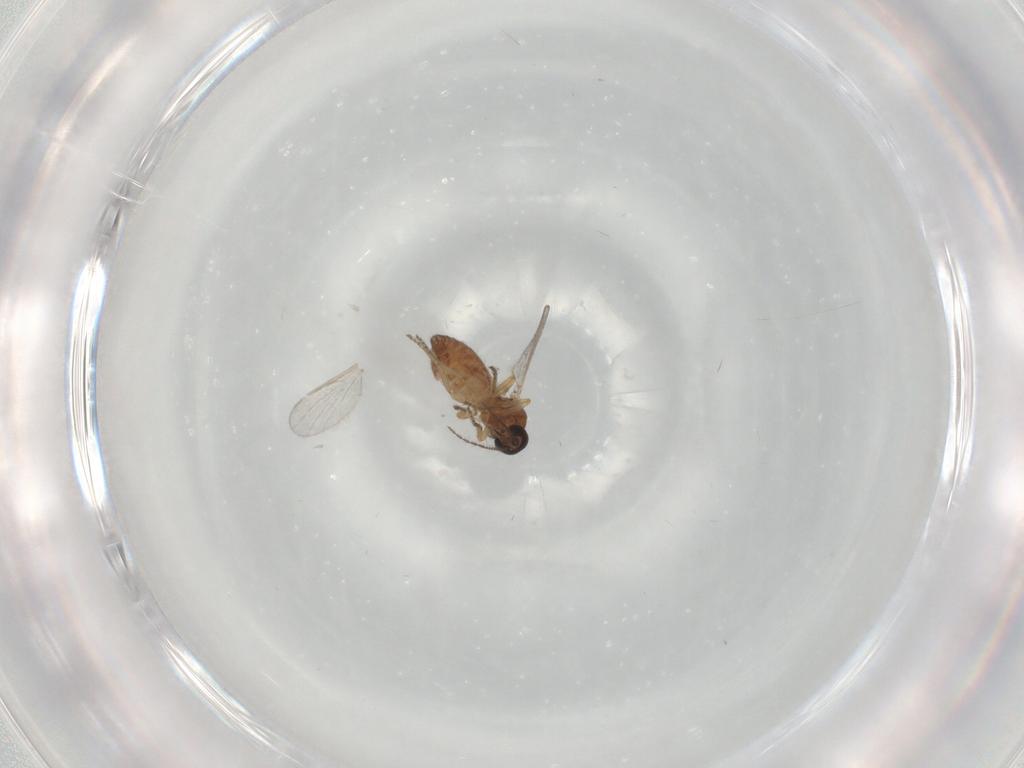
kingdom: Animalia
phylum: Arthropoda
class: Insecta
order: Diptera
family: Ceratopogonidae
